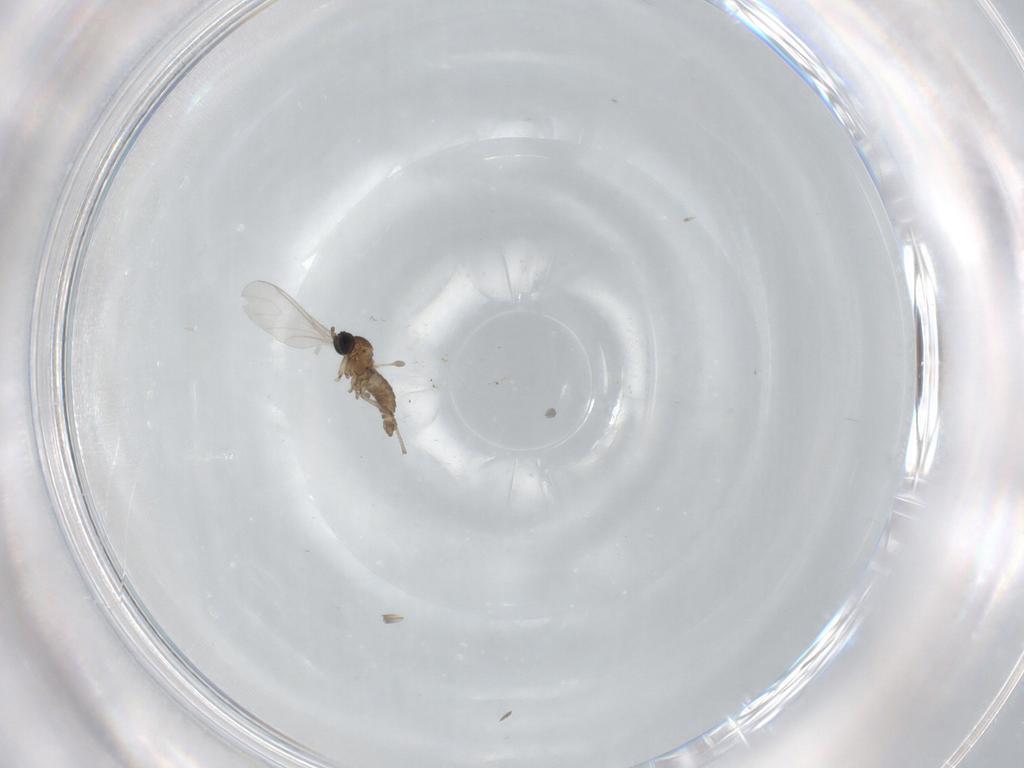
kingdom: Animalia
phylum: Arthropoda
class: Insecta
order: Diptera
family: Sciaridae
